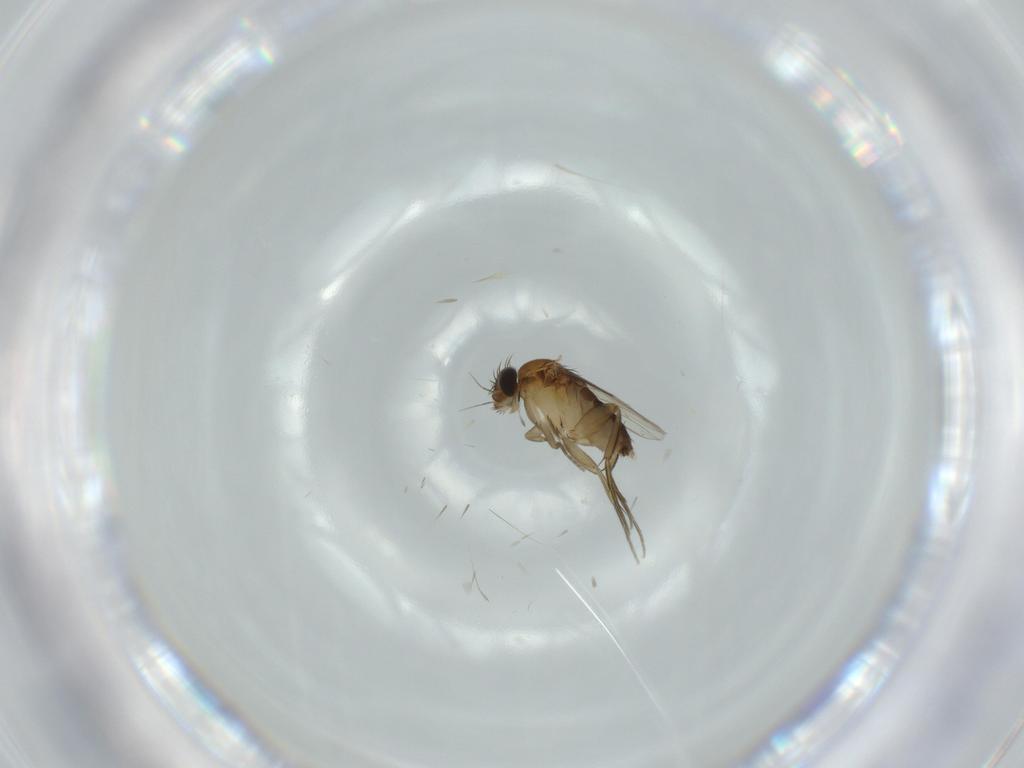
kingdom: Animalia
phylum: Arthropoda
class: Insecta
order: Diptera
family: Phoridae
